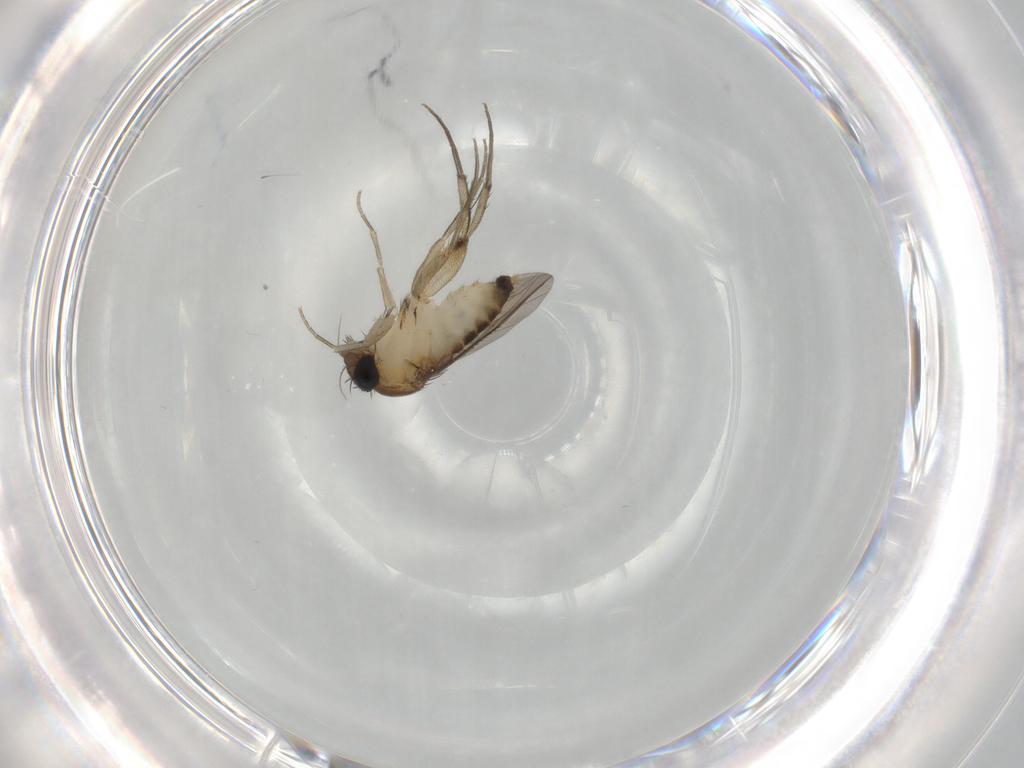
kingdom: Animalia
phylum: Arthropoda
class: Insecta
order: Diptera
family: Phoridae
